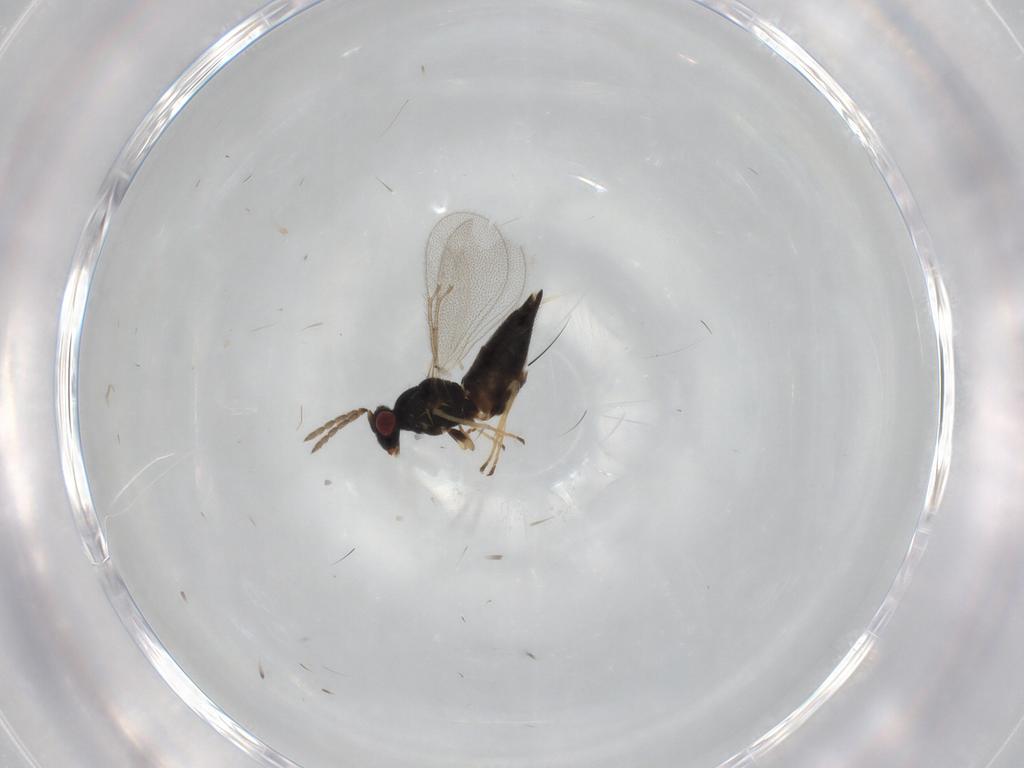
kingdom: Animalia
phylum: Arthropoda
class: Insecta
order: Hymenoptera
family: Eulophidae
